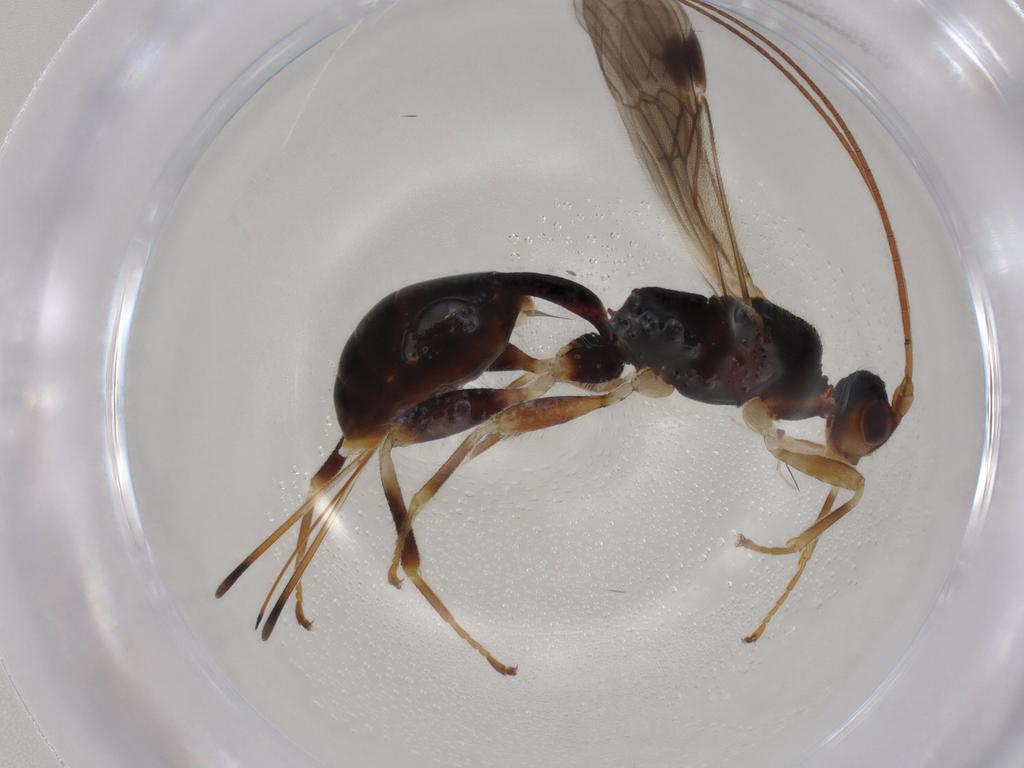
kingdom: Animalia
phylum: Arthropoda
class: Insecta
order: Hymenoptera
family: Braconidae
